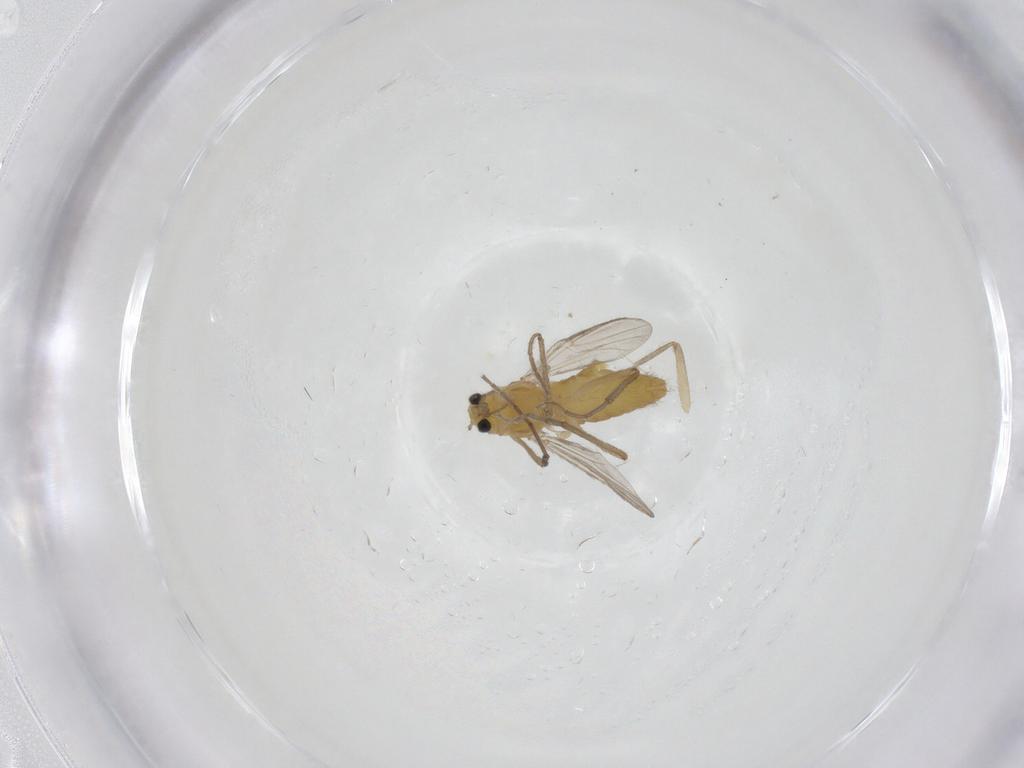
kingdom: Animalia
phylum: Arthropoda
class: Insecta
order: Diptera
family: Chironomidae
